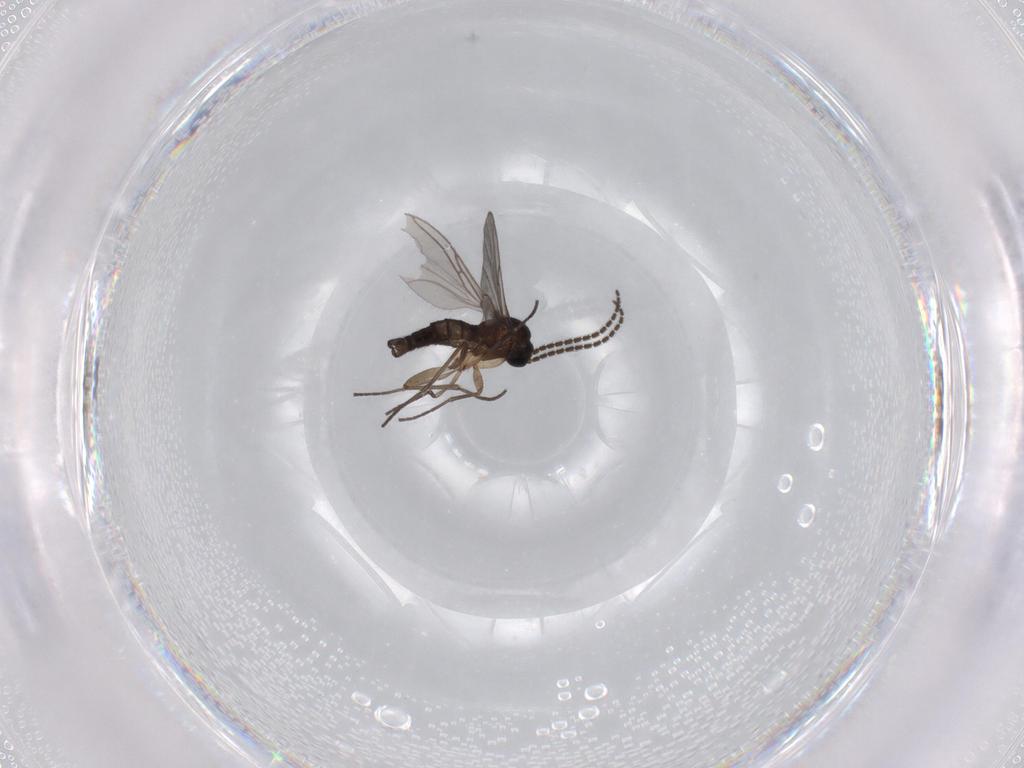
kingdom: Animalia
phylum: Arthropoda
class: Insecta
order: Diptera
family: Sciaridae
